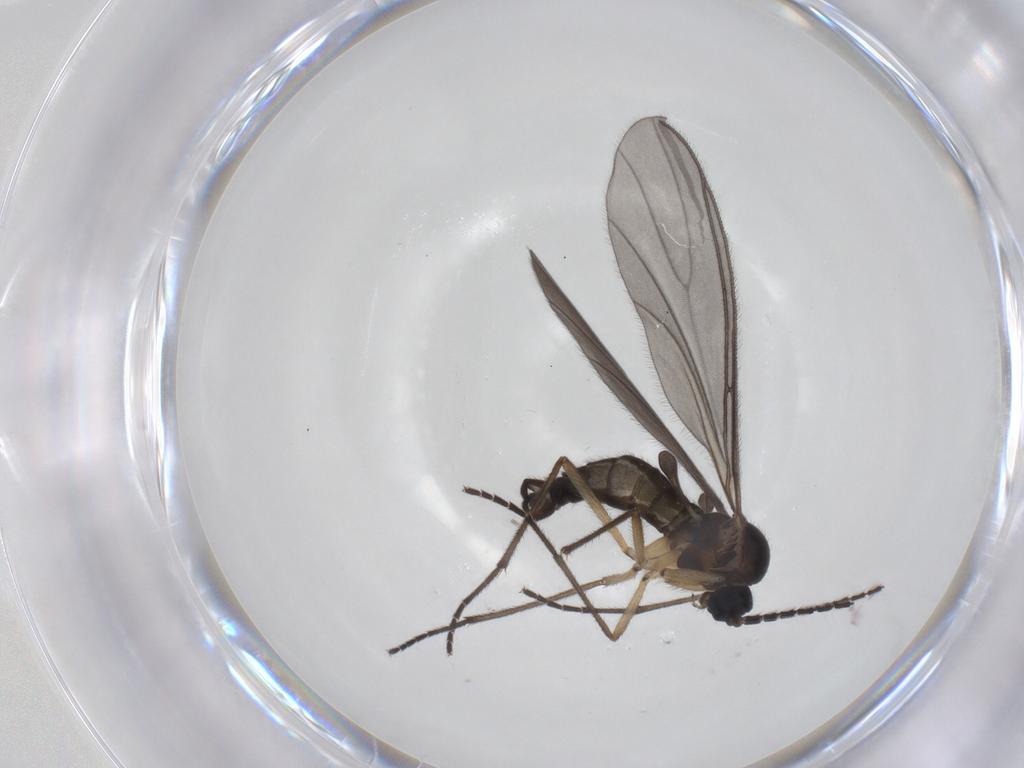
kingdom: Animalia
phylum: Arthropoda
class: Insecta
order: Diptera
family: Sciaridae
